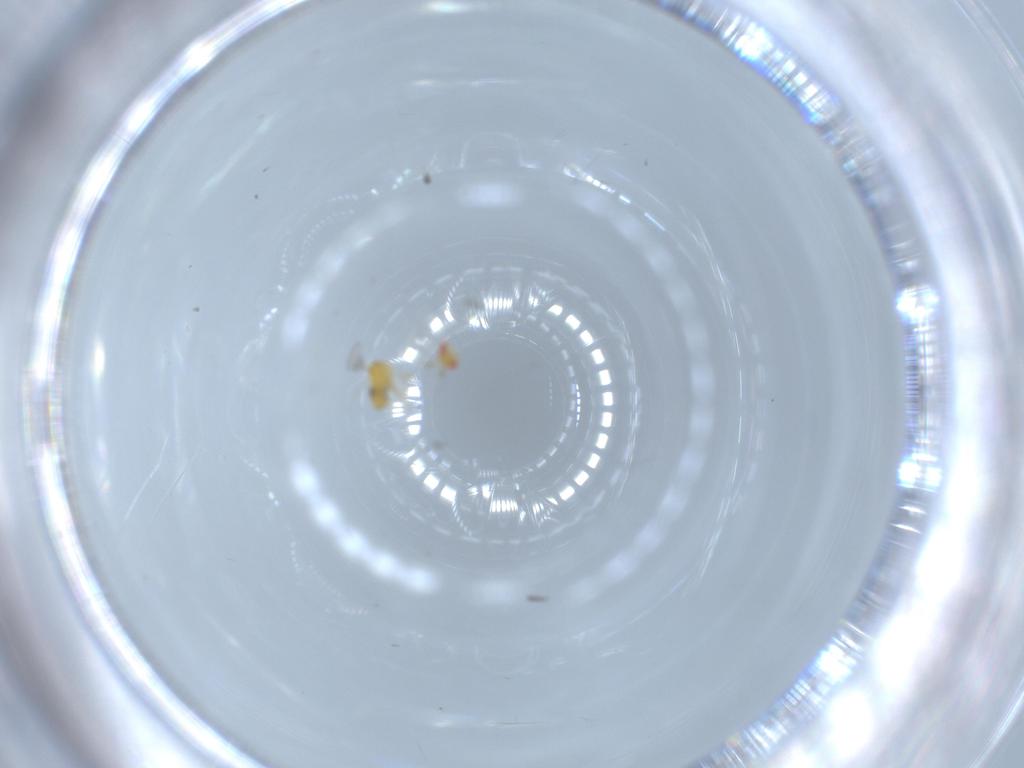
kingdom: Animalia
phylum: Arthropoda
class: Insecta
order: Hymenoptera
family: Trichogrammatidae
